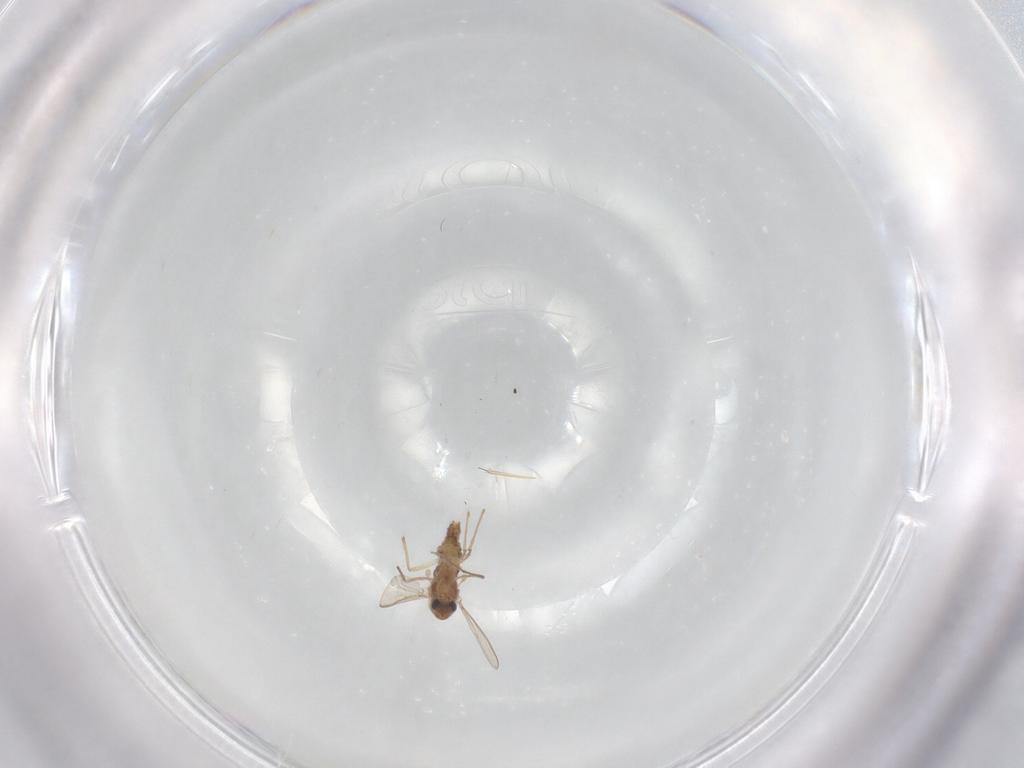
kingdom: Animalia
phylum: Arthropoda
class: Insecta
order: Diptera
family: Chironomidae
